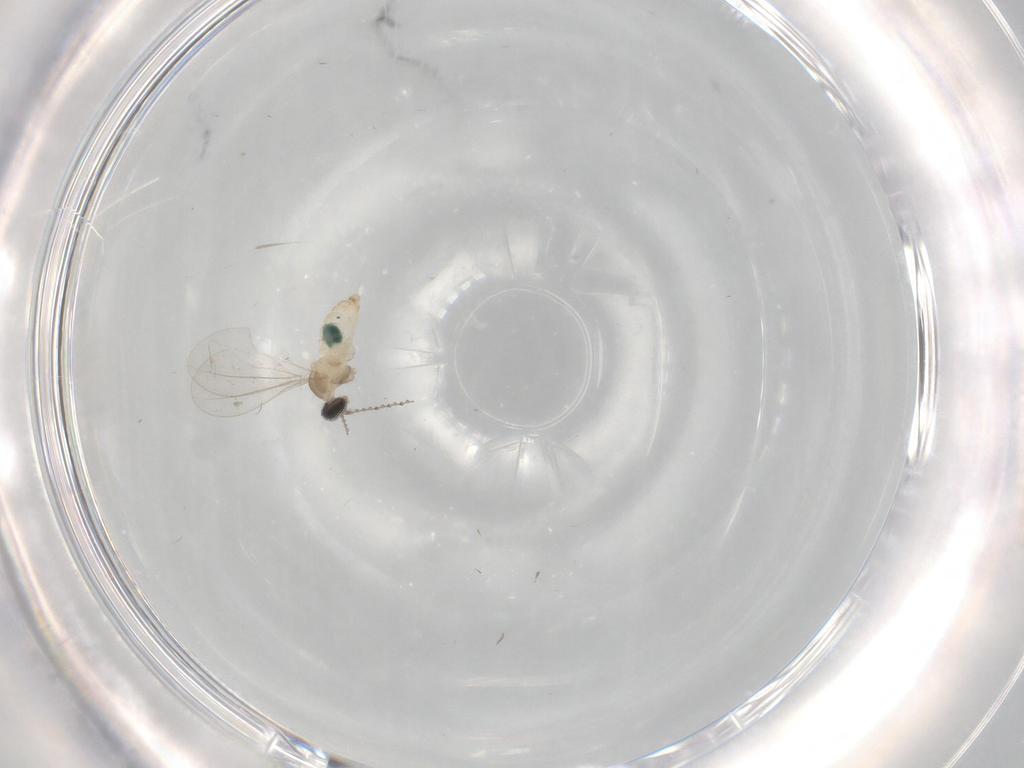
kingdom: Animalia
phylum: Arthropoda
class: Insecta
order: Diptera
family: Cecidomyiidae
